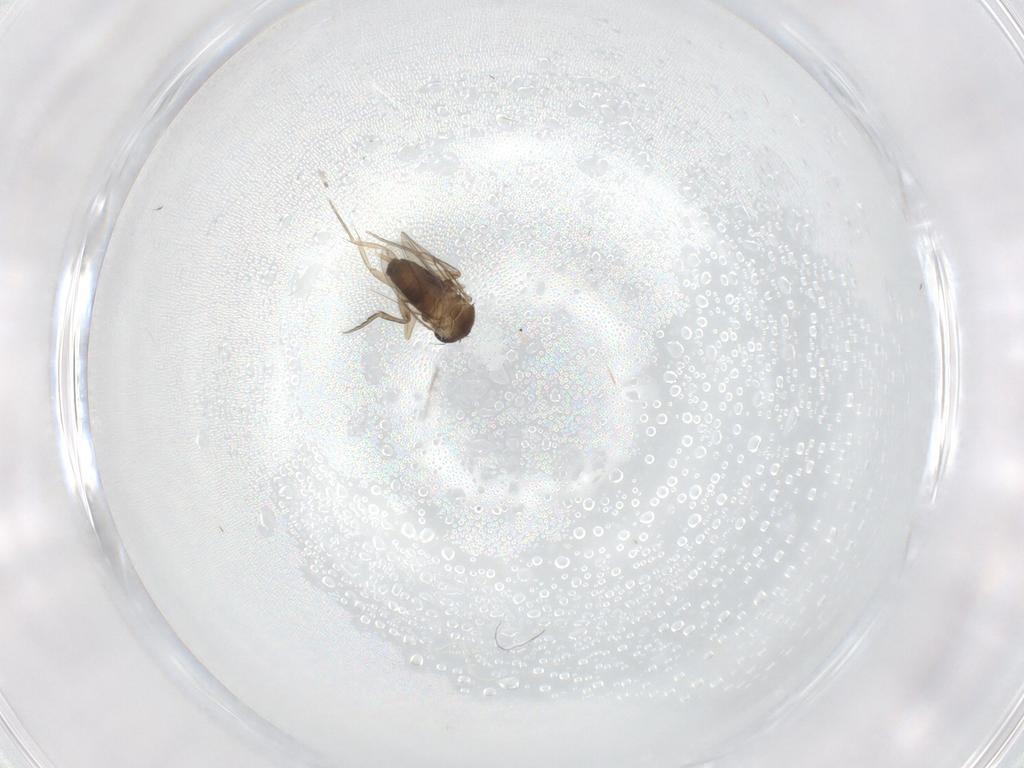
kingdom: Animalia
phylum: Arthropoda
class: Insecta
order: Diptera
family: Phoridae
